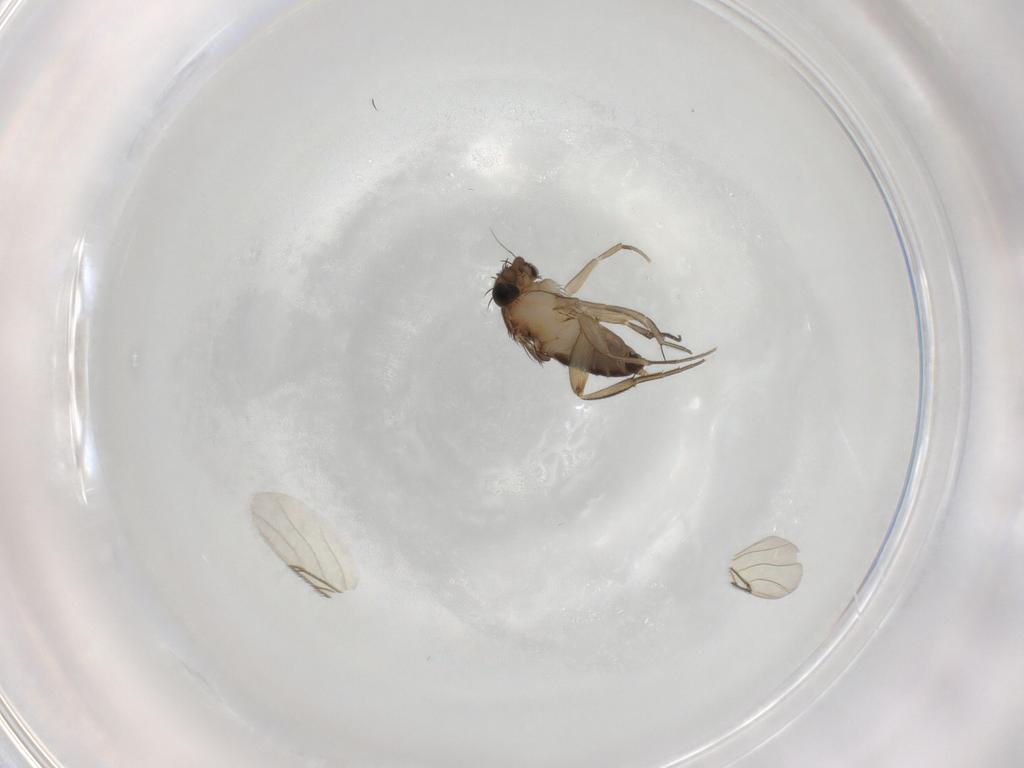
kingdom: Animalia
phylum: Arthropoda
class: Insecta
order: Diptera
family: Phoridae
